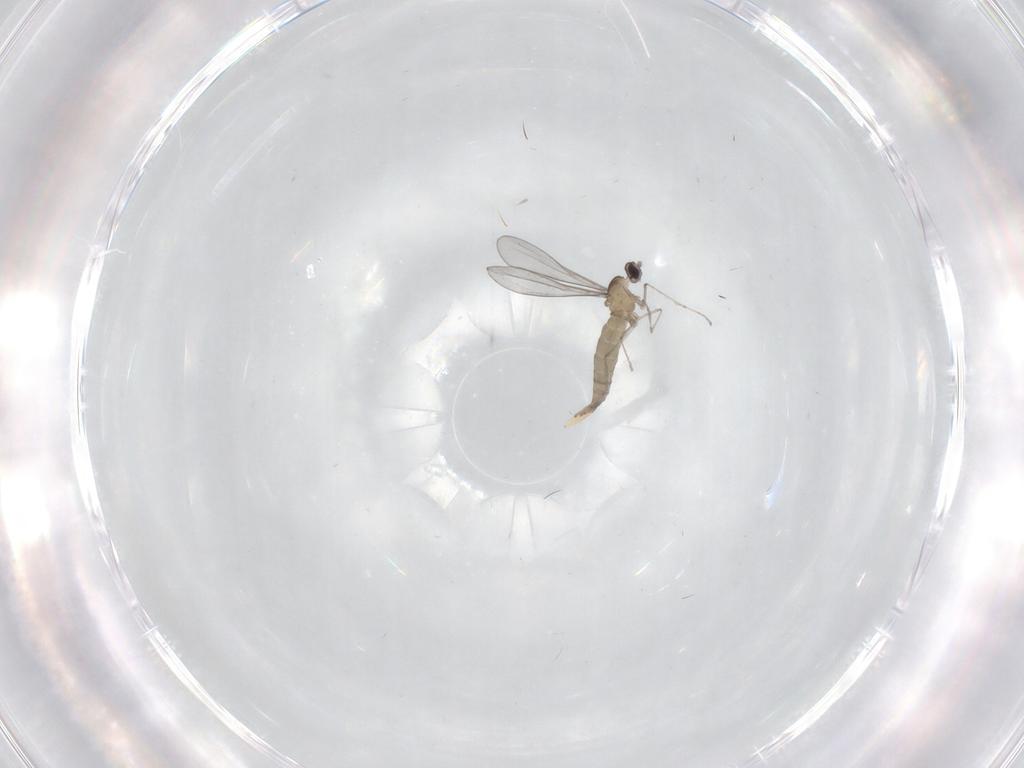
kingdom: Animalia
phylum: Arthropoda
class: Insecta
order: Diptera
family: Cecidomyiidae
